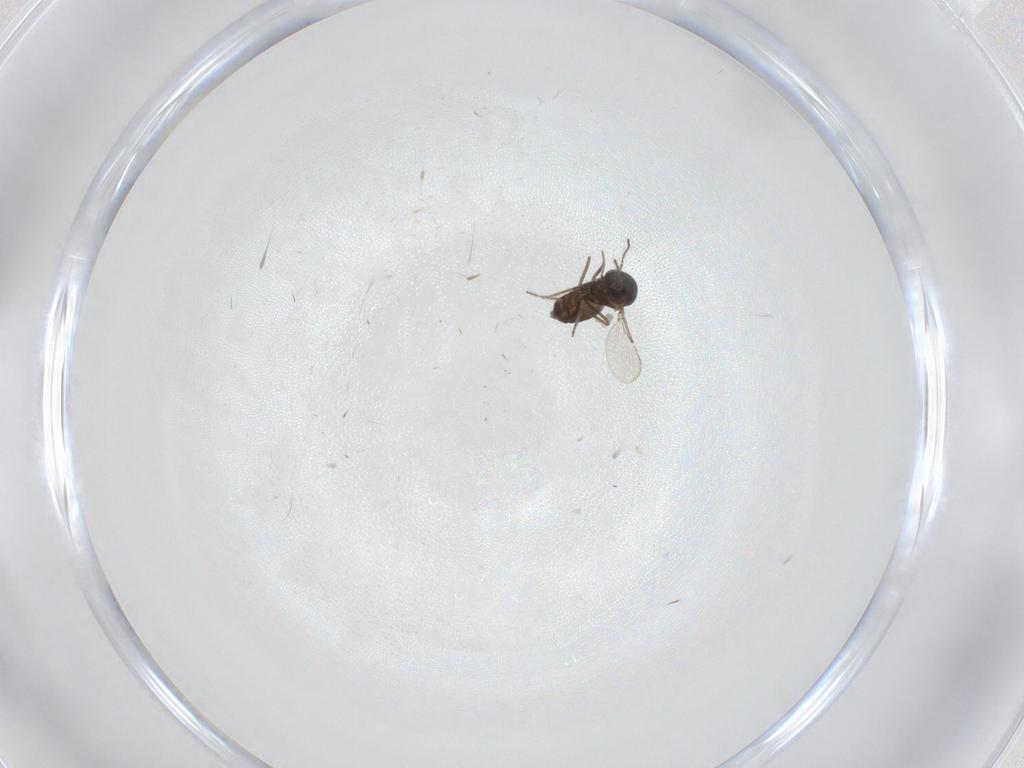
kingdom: Animalia
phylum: Arthropoda
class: Insecta
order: Diptera
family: Ceratopogonidae
